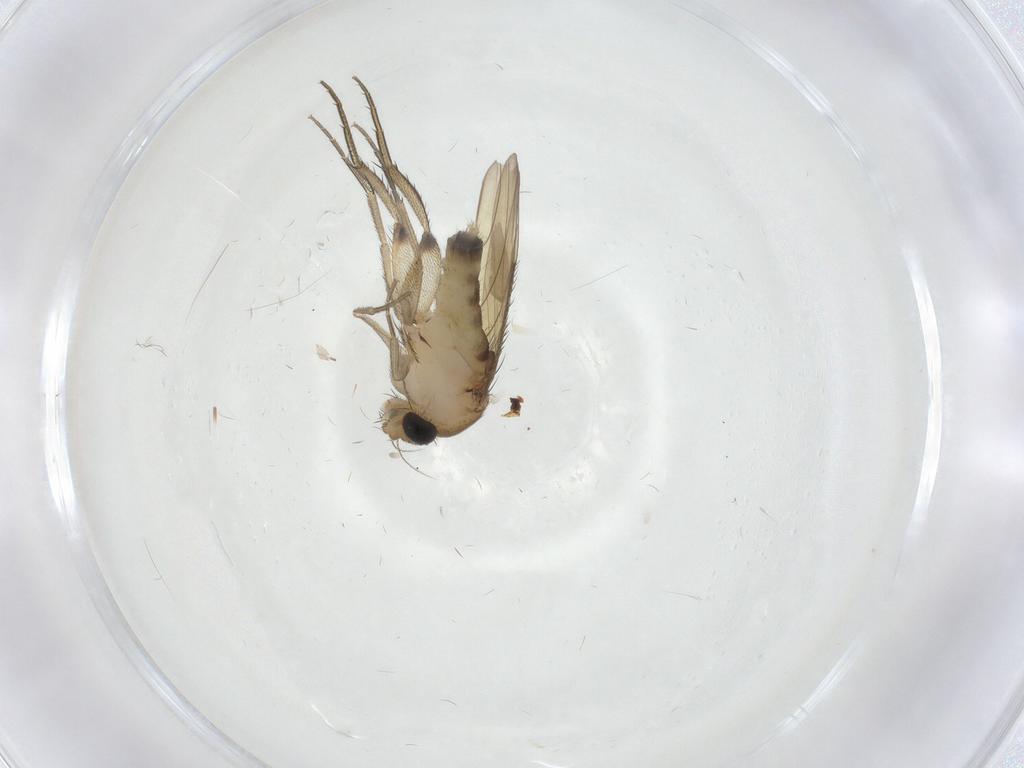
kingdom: Animalia
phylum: Arthropoda
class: Insecta
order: Diptera
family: Phoridae
